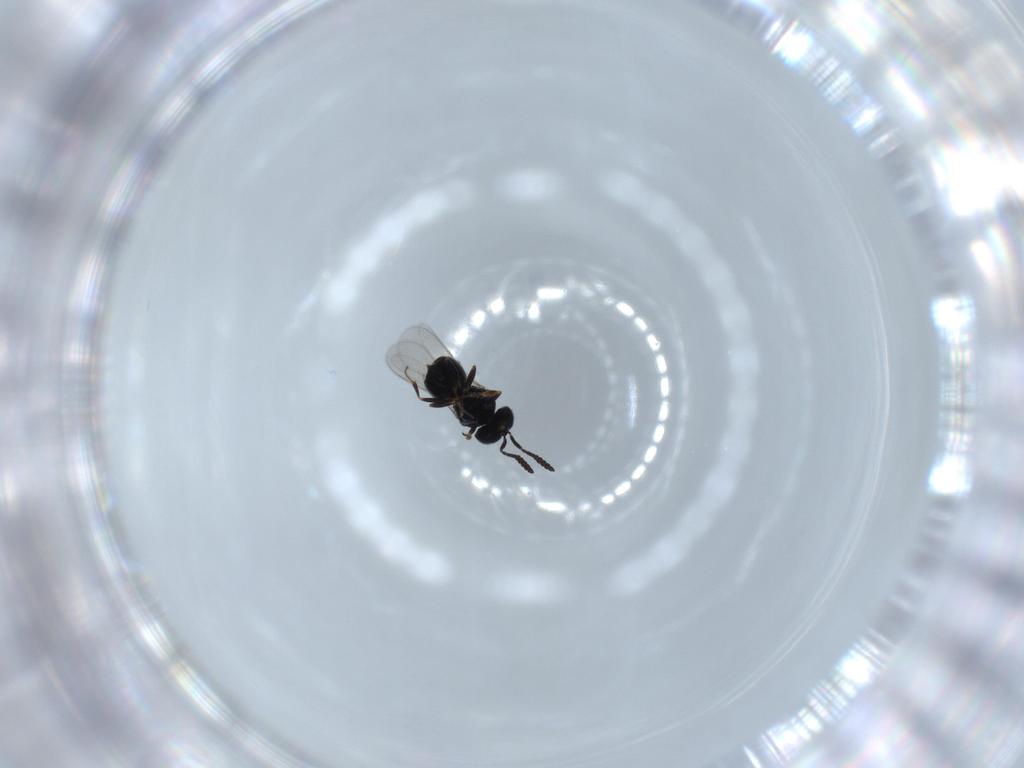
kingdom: Animalia
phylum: Arthropoda
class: Insecta
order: Hymenoptera
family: Scelionidae
